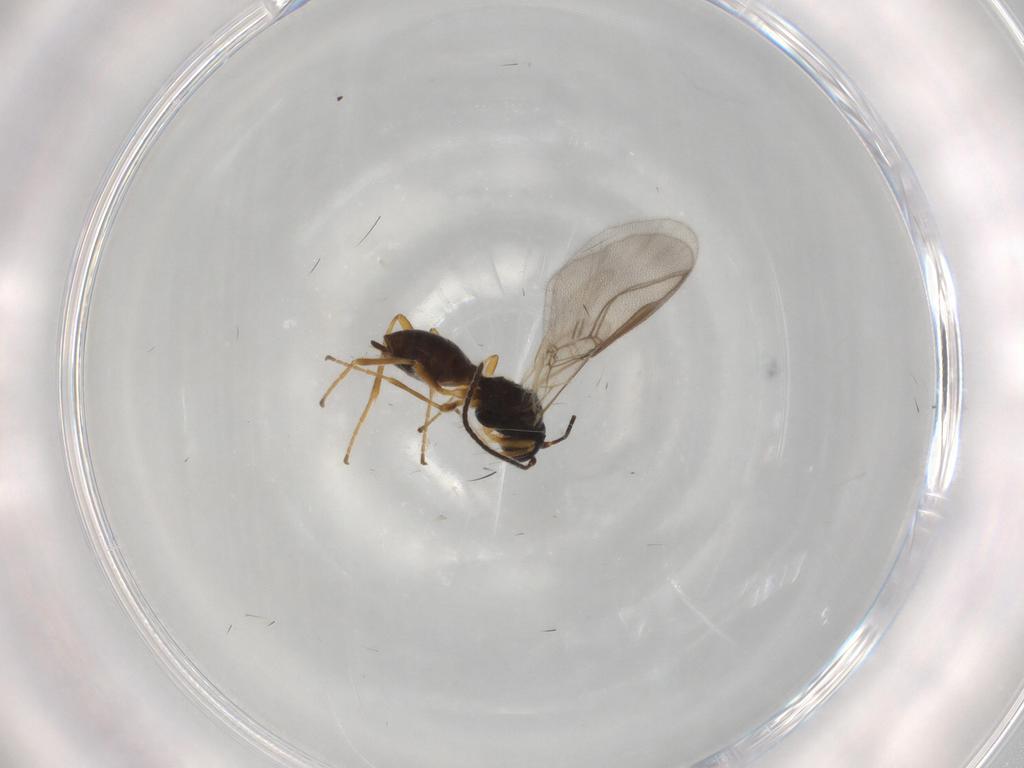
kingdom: Animalia
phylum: Arthropoda
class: Insecta
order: Hymenoptera
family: Braconidae
